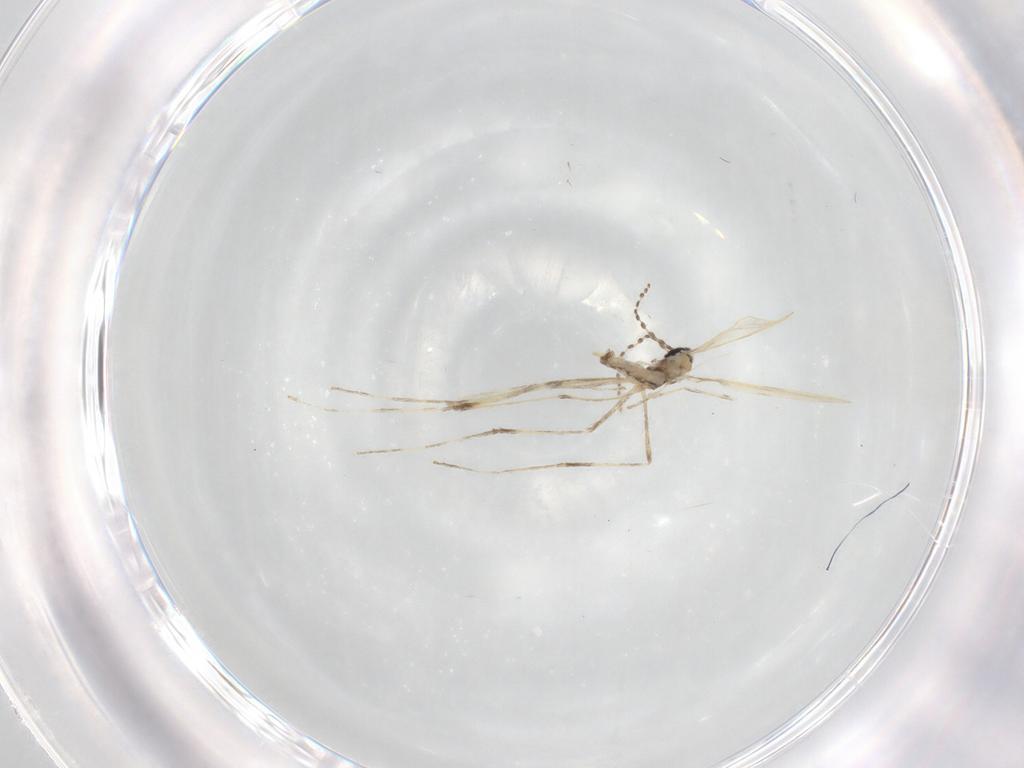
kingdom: Animalia
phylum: Arthropoda
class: Insecta
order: Diptera
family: Cecidomyiidae
